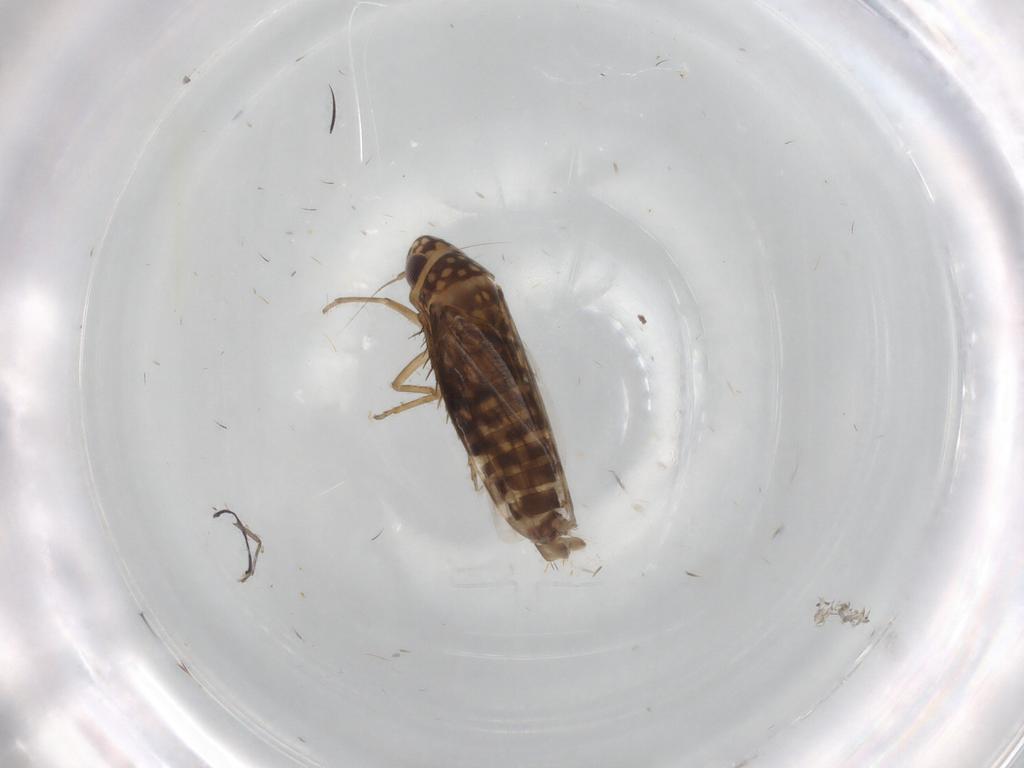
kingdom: Animalia
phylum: Arthropoda
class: Insecta
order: Hemiptera
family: Cicadellidae
